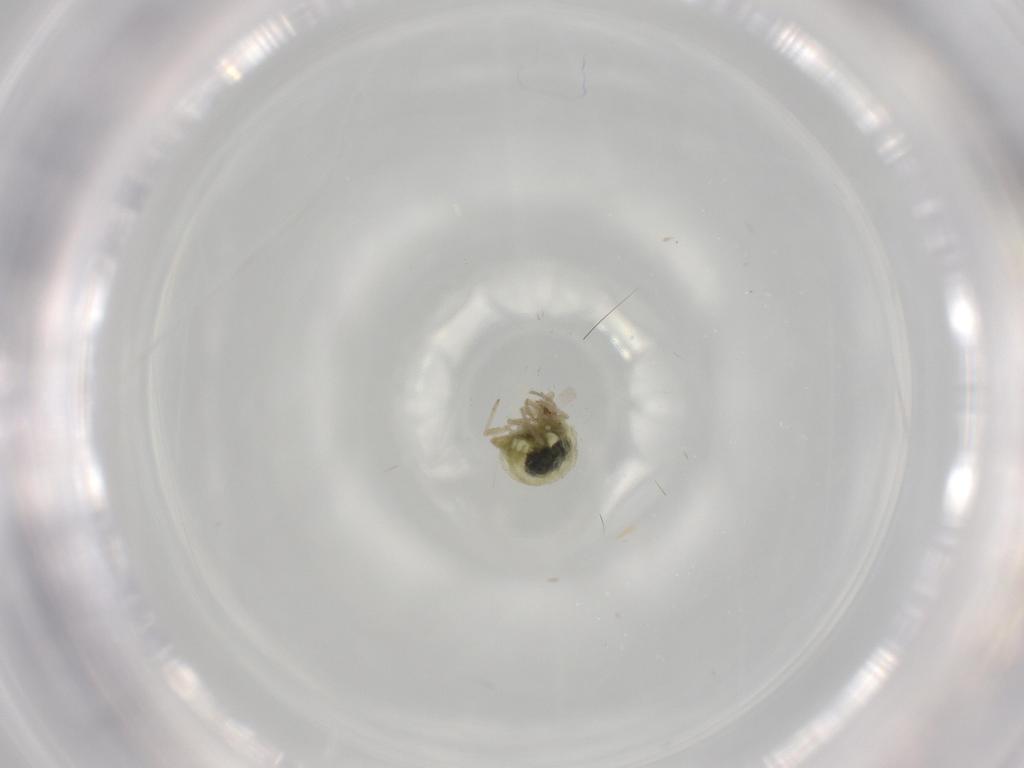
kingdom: Animalia
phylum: Arthropoda
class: Insecta
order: Neuroptera
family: Coniopterygidae
